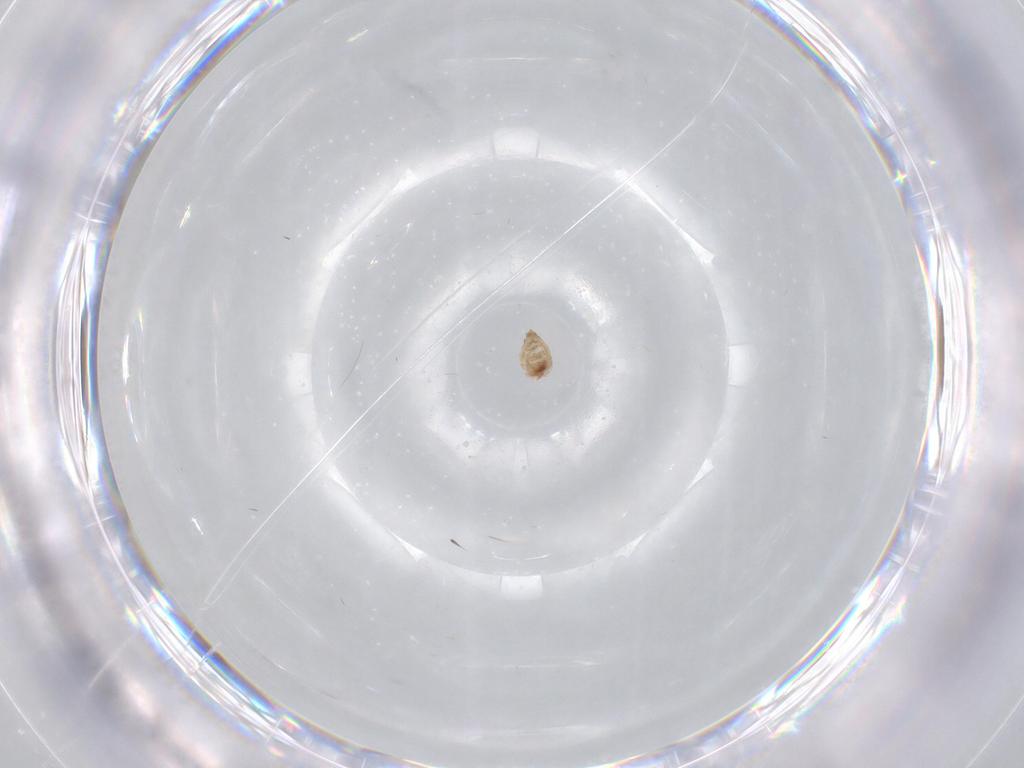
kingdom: Animalia
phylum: Arthropoda
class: Insecta
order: Diptera
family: Cecidomyiidae
